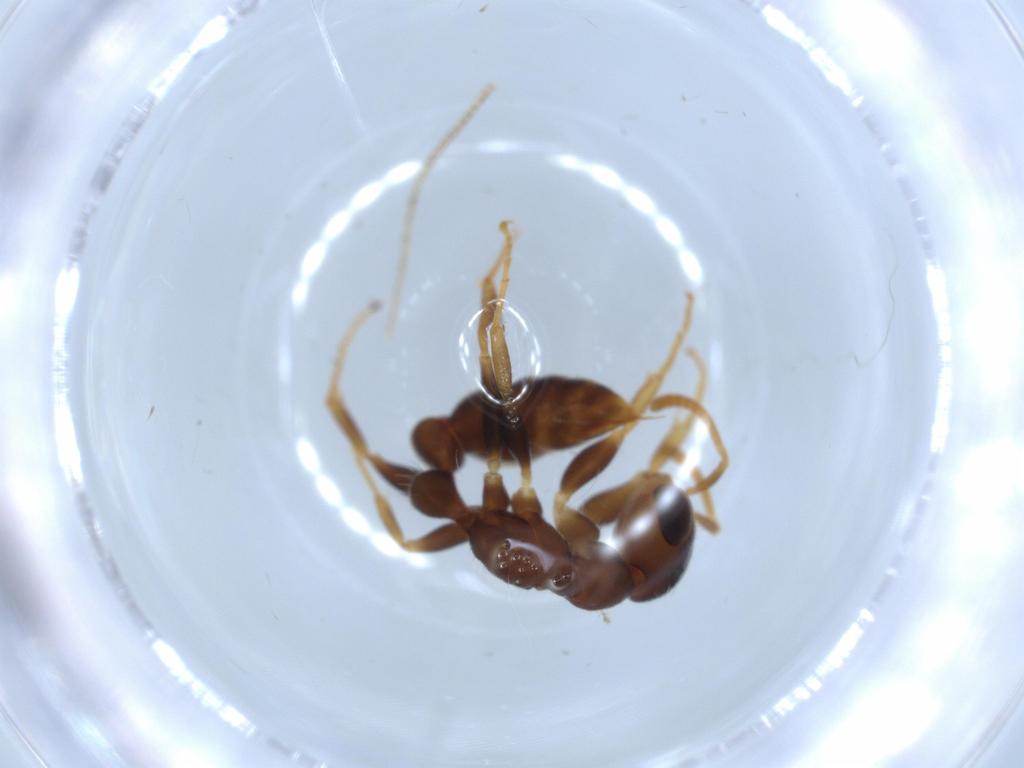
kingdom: Animalia
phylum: Arthropoda
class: Insecta
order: Hymenoptera
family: Formicidae
